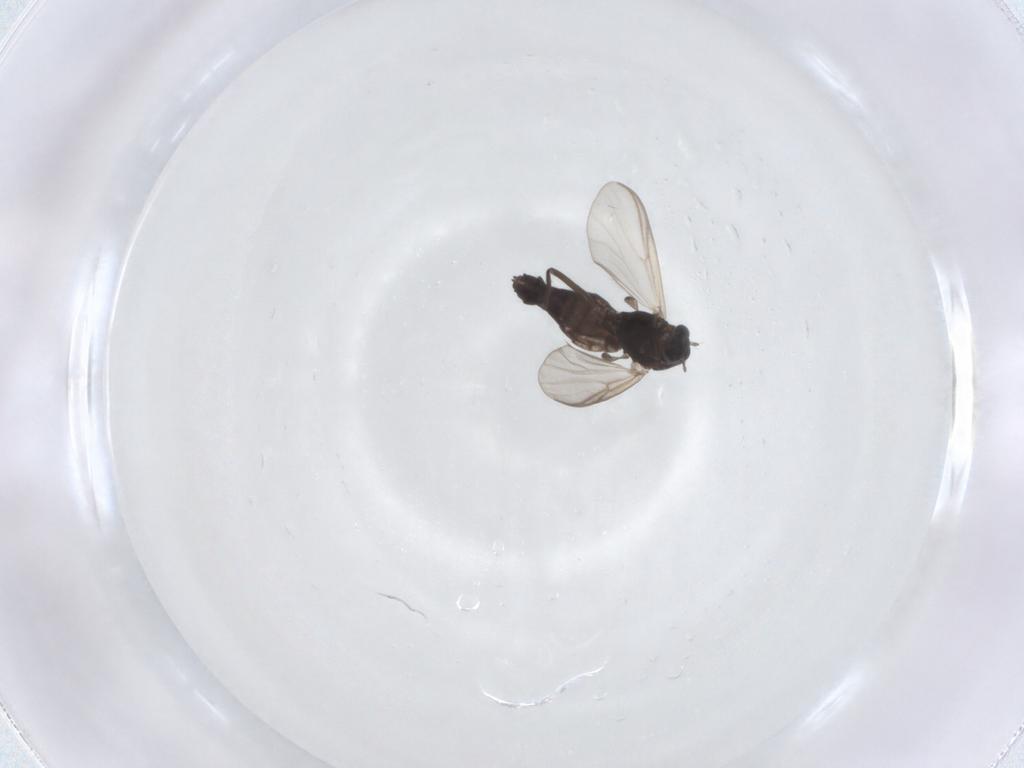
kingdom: Animalia
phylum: Arthropoda
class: Insecta
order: Diptera
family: Chironomidae
